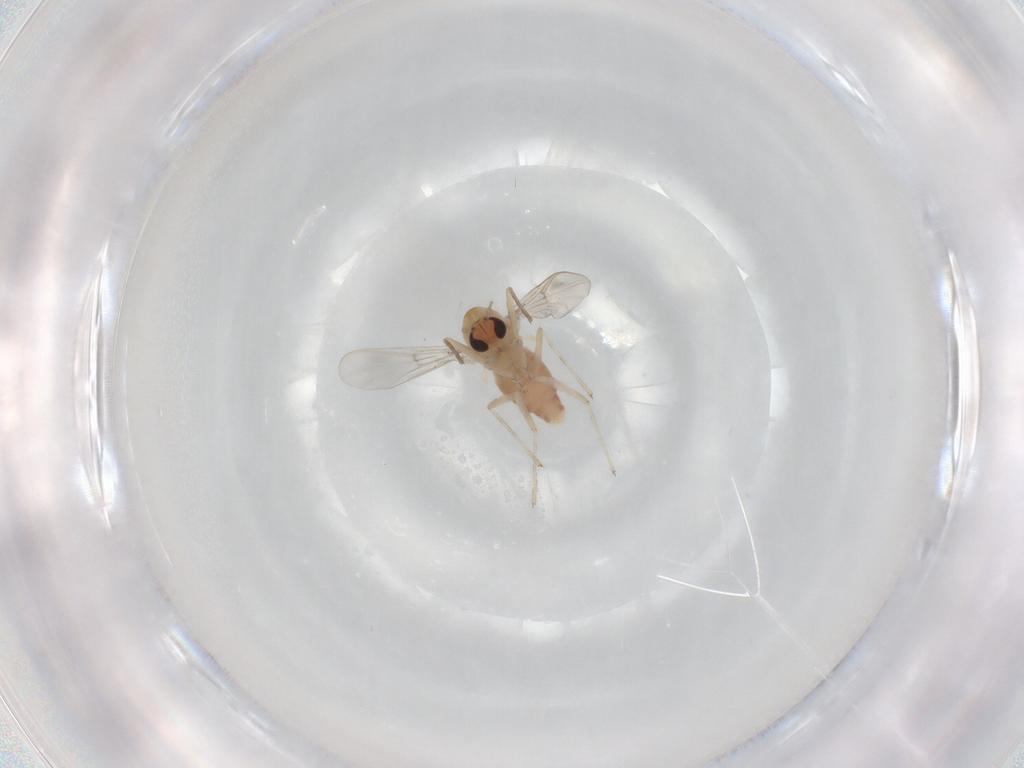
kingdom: Animalia
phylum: Arthropoda
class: Insecta
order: Diptera
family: Chironomidae
